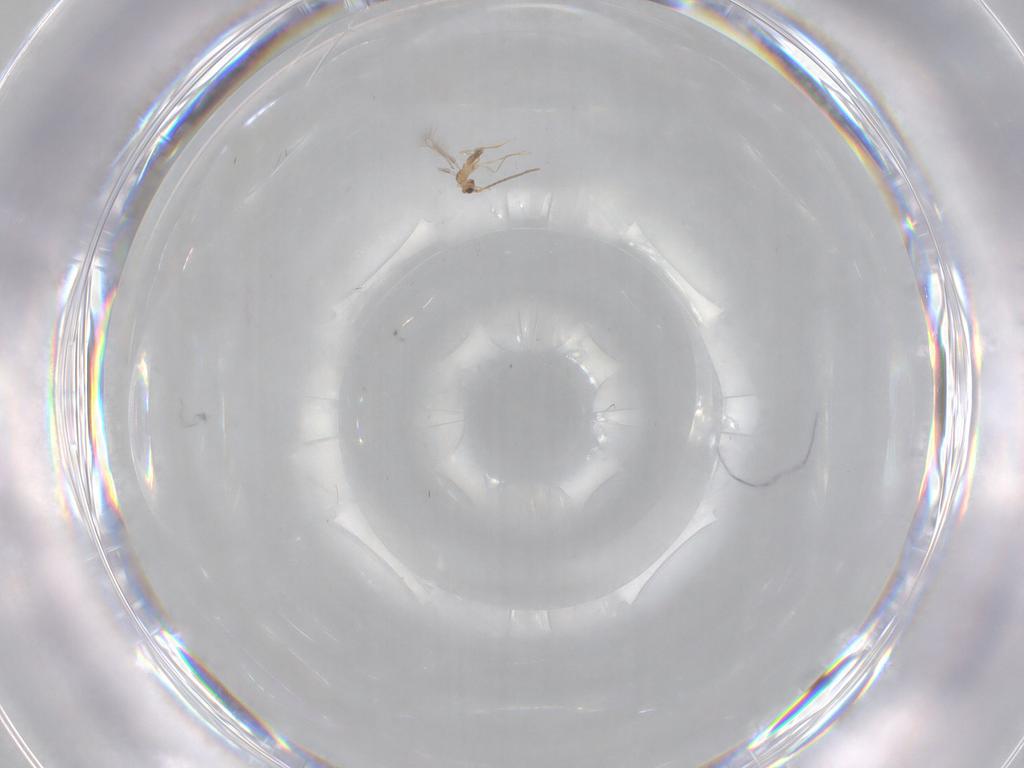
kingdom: Animalia
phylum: Arthropoda
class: Insecta
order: Hymenoptera
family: Mymaridae
